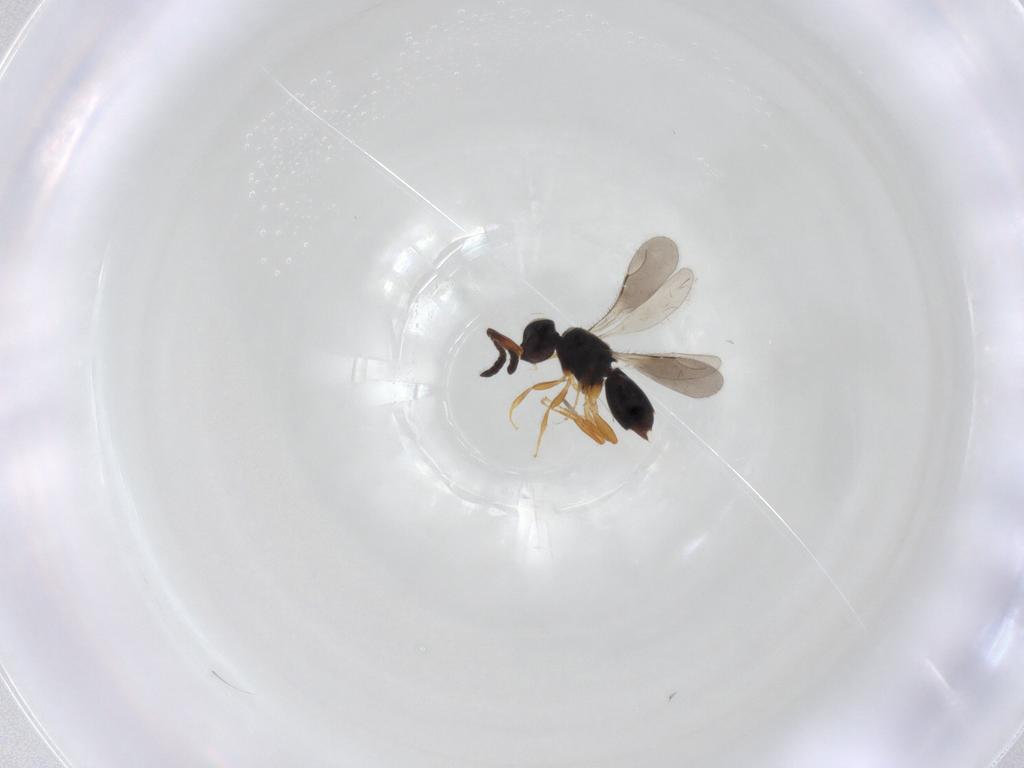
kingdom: Animalia
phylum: Arthropoda
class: Insecta
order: Hymenoptera
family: Ceraphronidae
